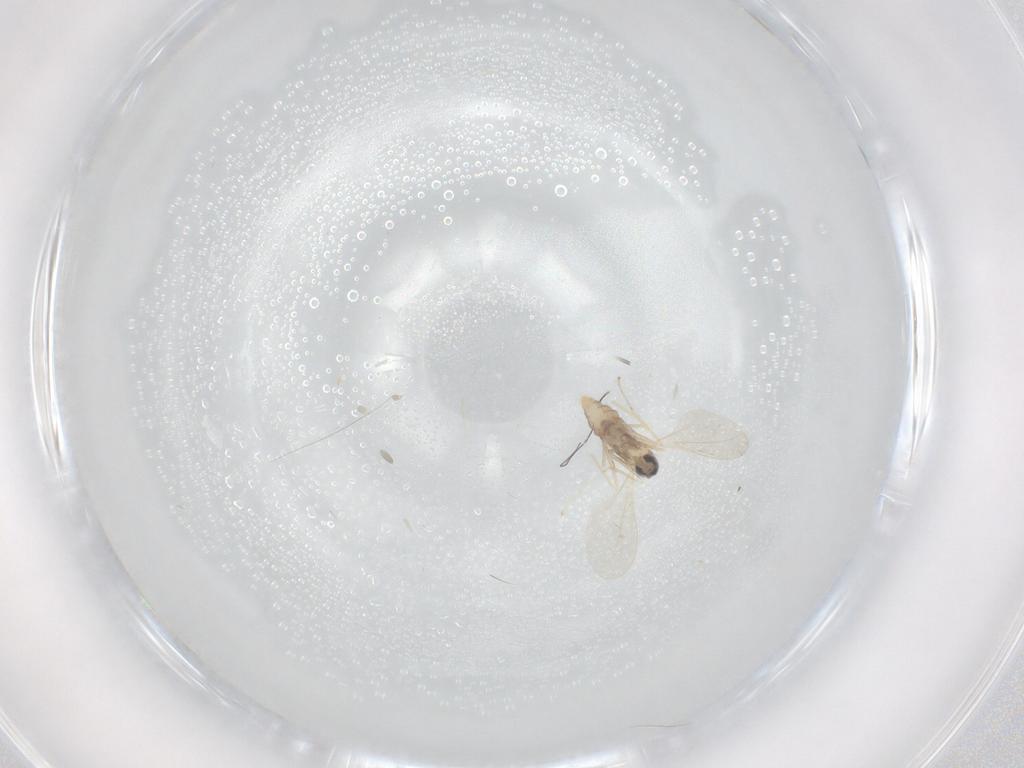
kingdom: Animalia
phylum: Arthropoda
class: Insecta
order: Diptera
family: Cecidomyiidae
